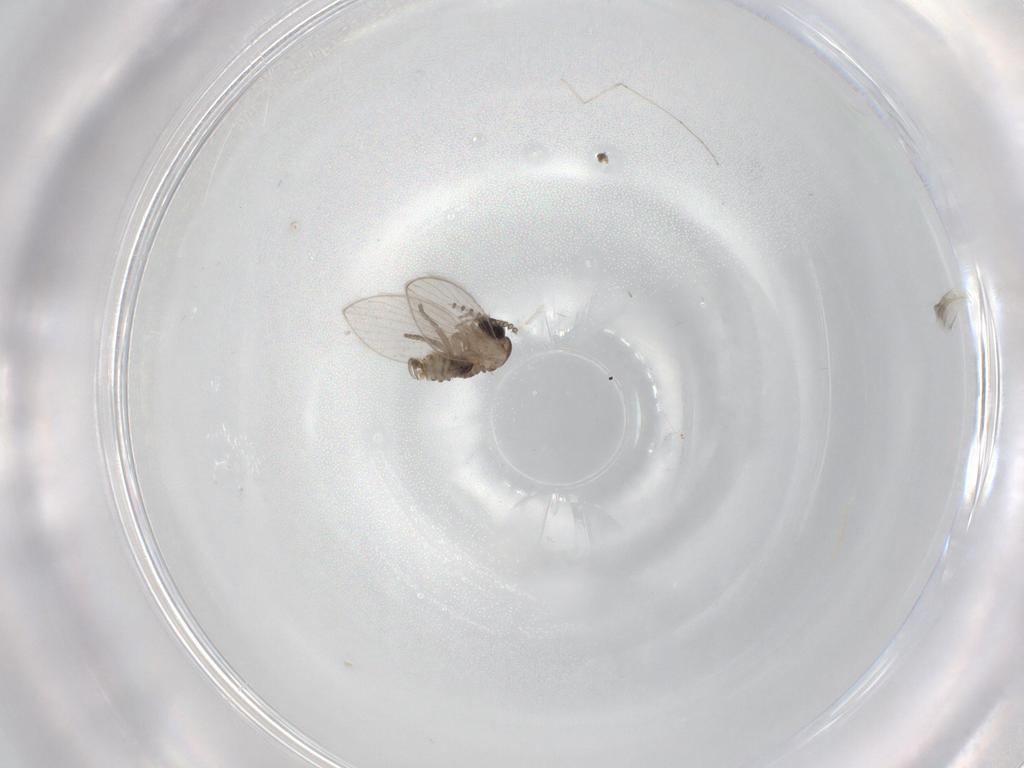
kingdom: Animalia
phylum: Arthropoda
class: Insecta
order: Diptera
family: Psychodidae
